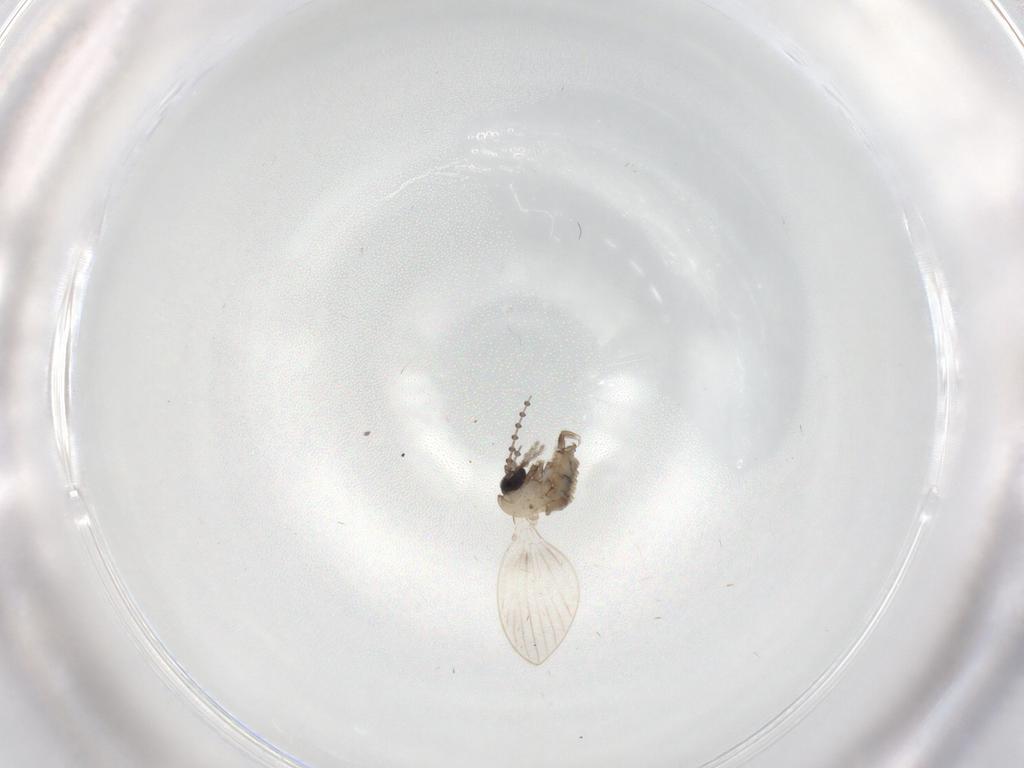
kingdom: Animalia
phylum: Arthropoda
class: Insecta
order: Diptera
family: Psychodidae
